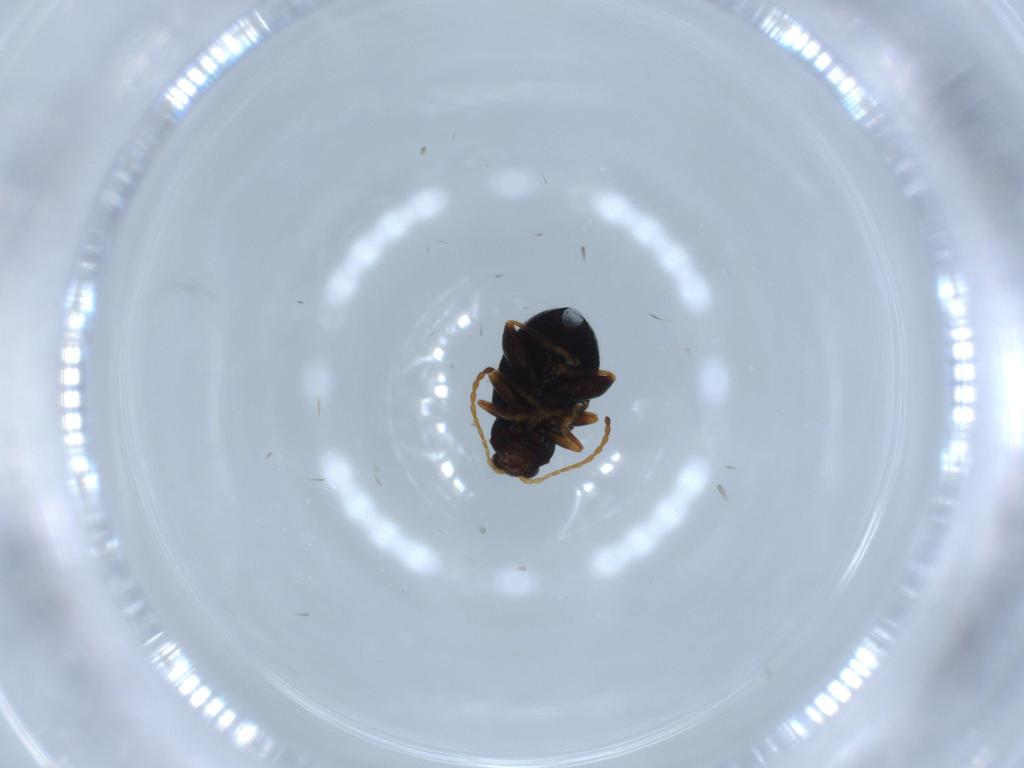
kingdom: Animalia
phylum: Arthropoda
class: Insecta
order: Coleoptera
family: Chrysomelidae
